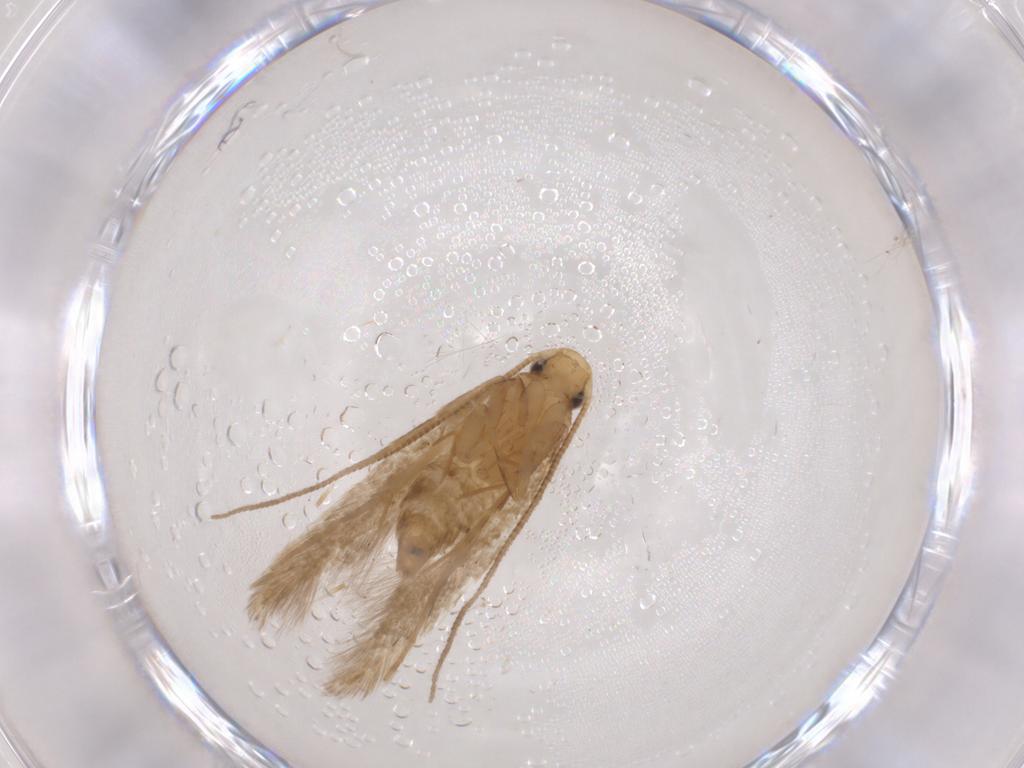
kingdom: Animalia
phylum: Arthropoda
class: Insecta
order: Lepidoptera
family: Tineidae
